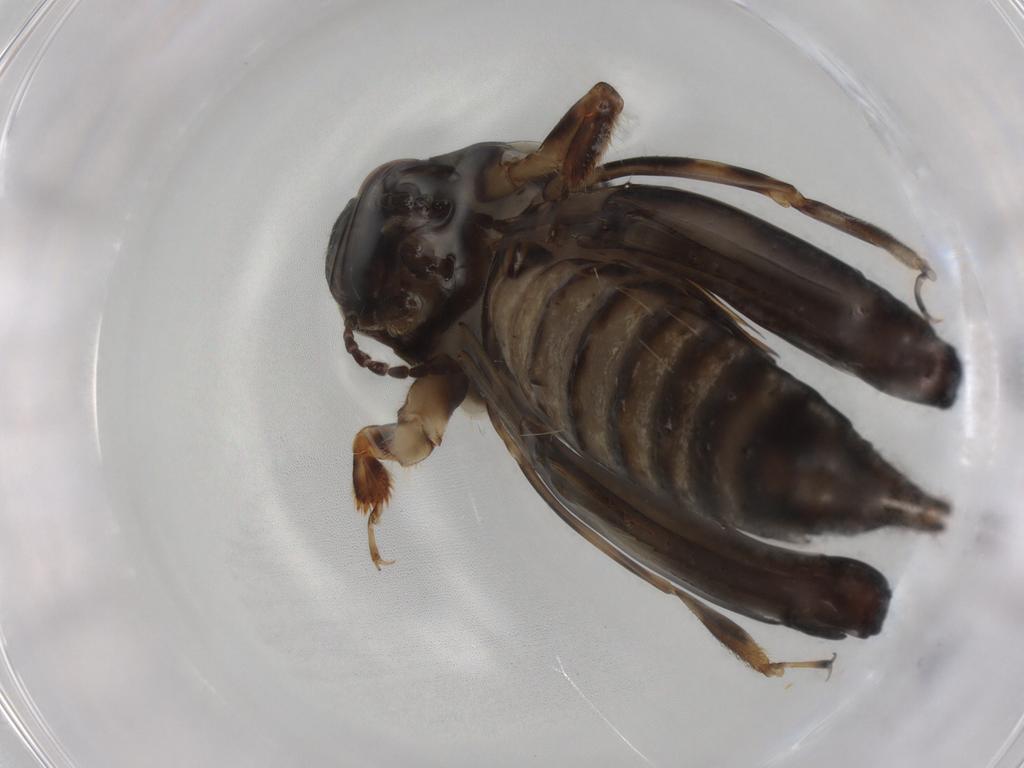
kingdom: Animalia
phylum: Arthropoda
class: Insecta
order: Orthoptera
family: Tridactylidae
